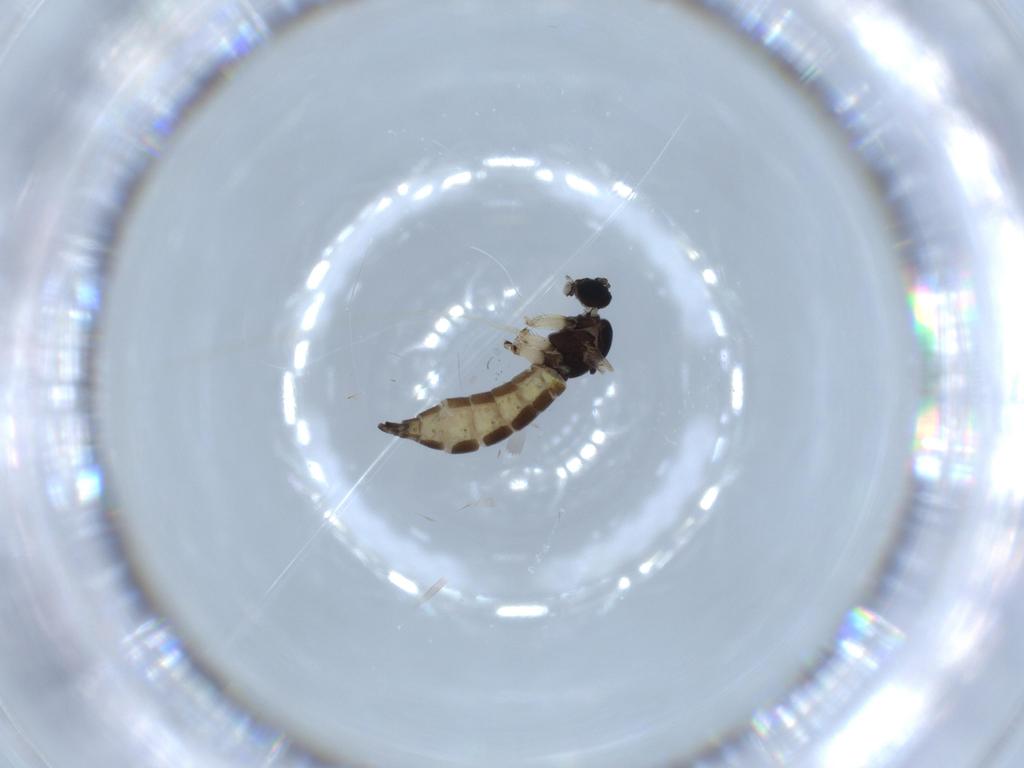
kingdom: Animalia
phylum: Arthropoda
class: Insecta
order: Diptera
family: Sciaridae
